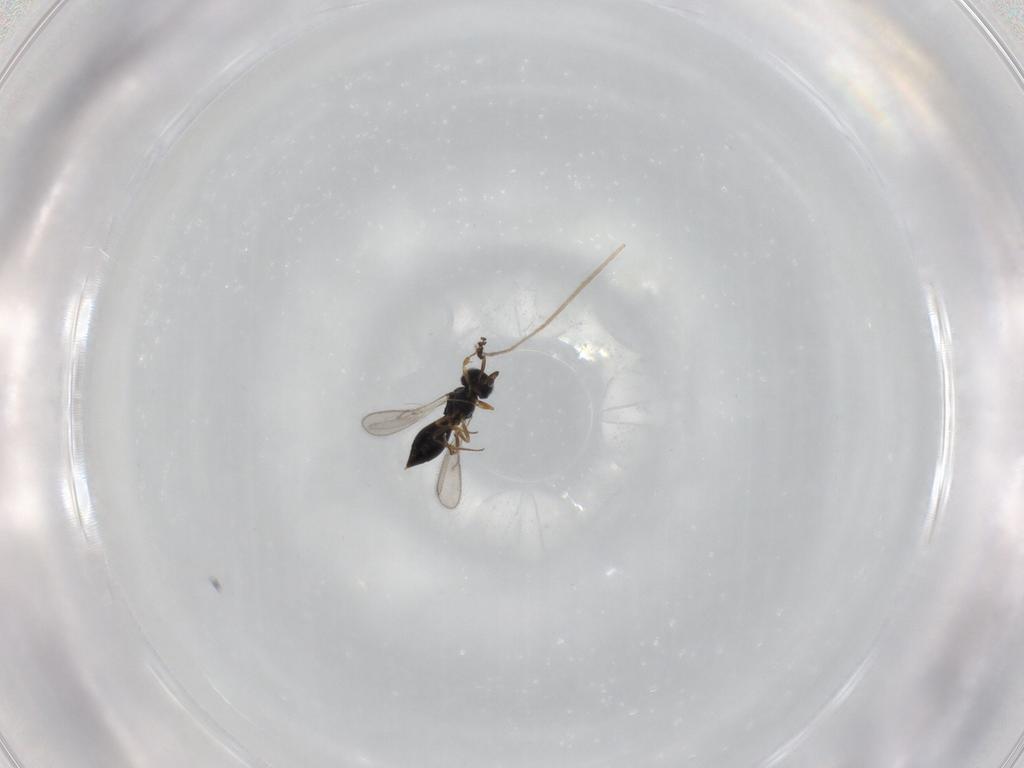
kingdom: Animalia
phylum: Arthropoda
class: Insecta
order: Hymenoptera
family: Scelionidae
